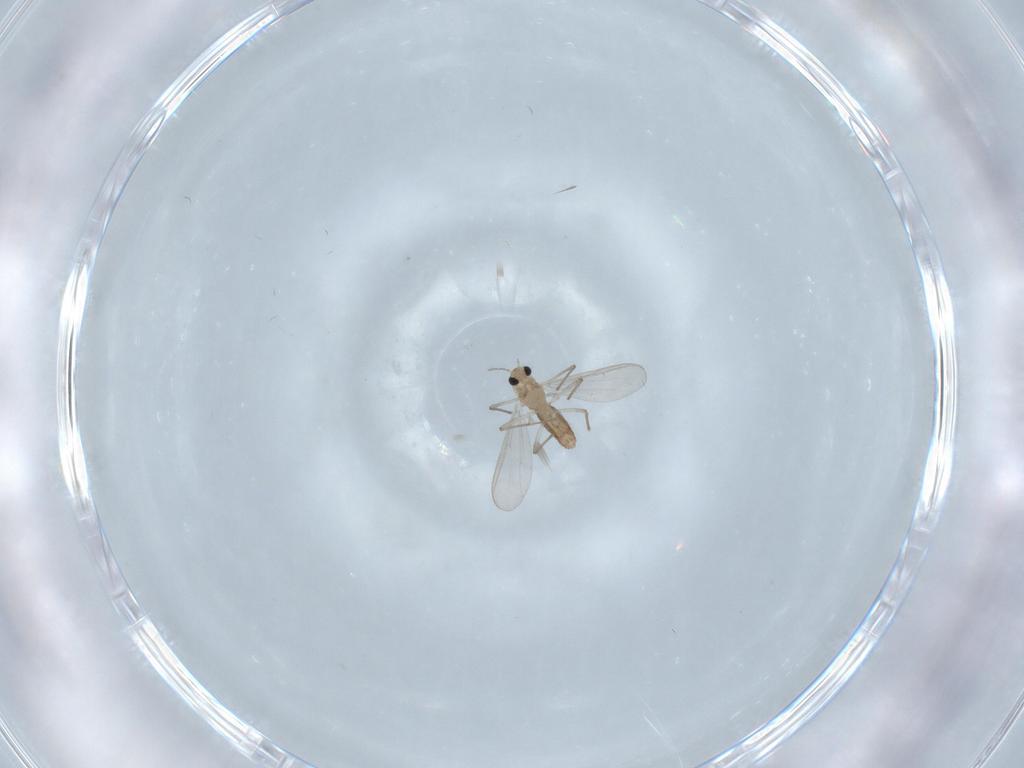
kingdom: Animalia
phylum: Arthropoda
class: Insecta
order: Diptera
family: Chironomidae
